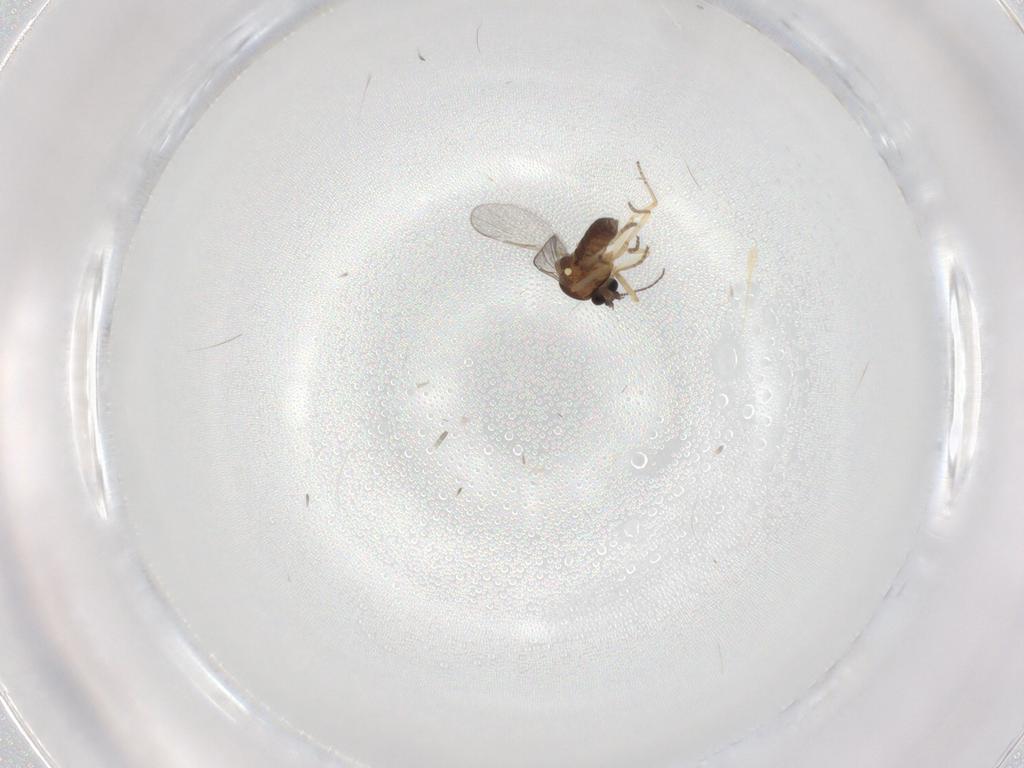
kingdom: Animalia
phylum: Arthropoda
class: Insecta
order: Diptera
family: Ceratopogonidae
